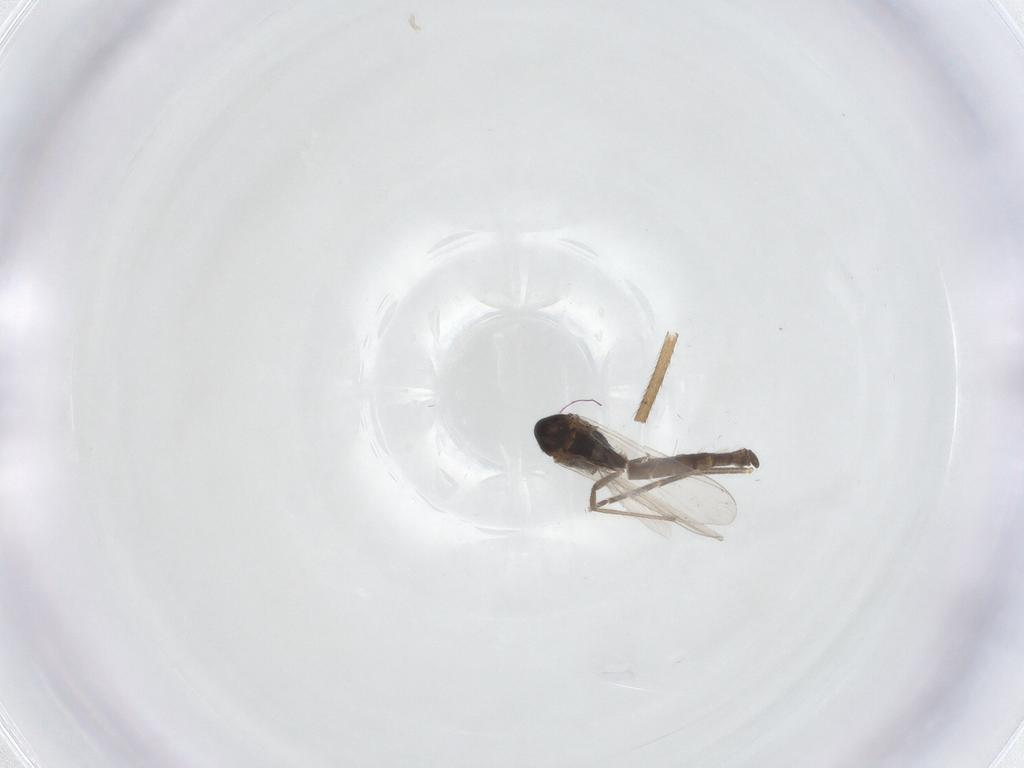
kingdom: Animalia
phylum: Arthropoda
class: Insecta
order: Diptera
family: Chironomidae
